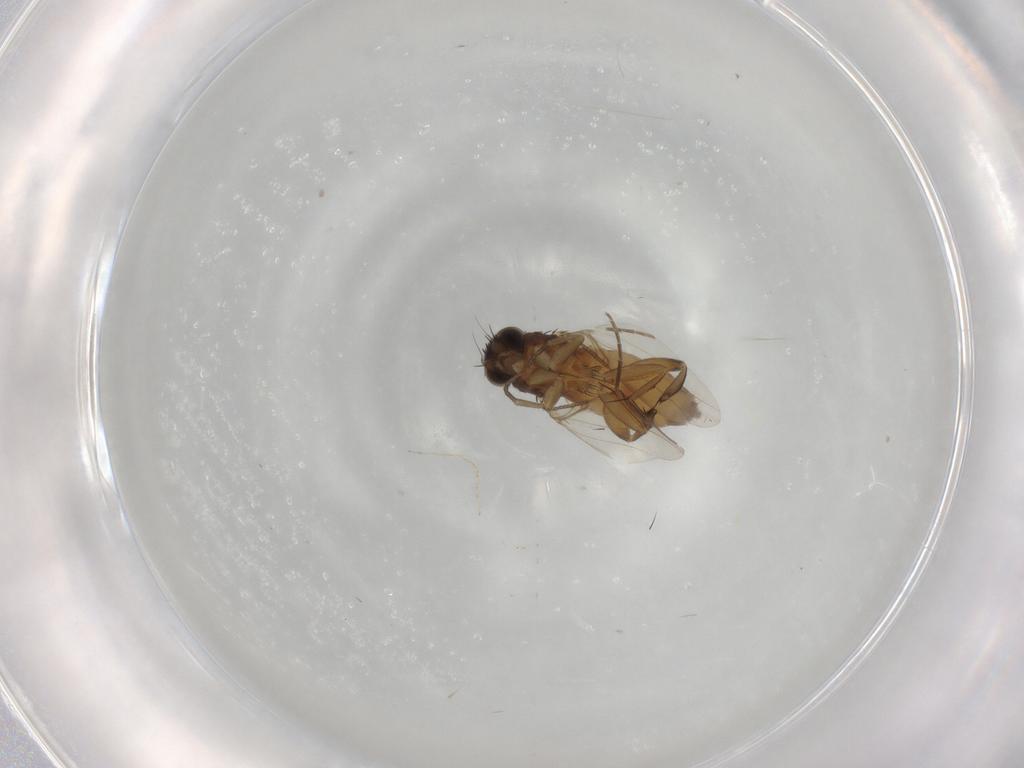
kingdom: Animalia
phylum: Arthropoda
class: Insecta
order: Diptera
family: Phoridae
